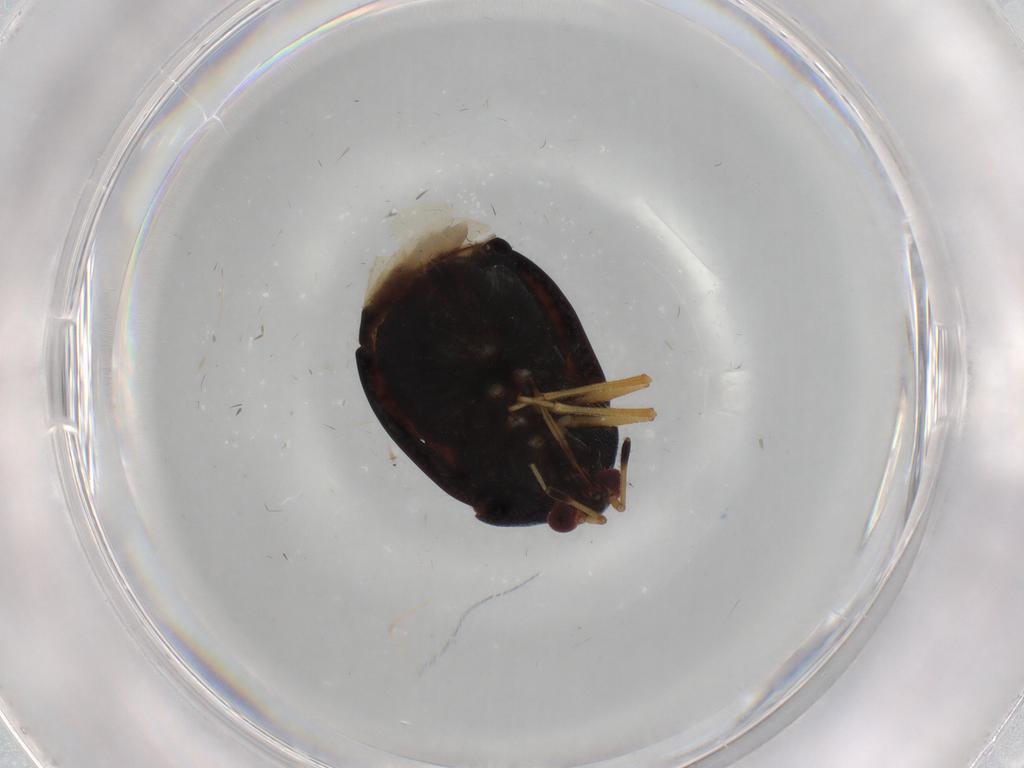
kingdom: Animalia
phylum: Arthropoda
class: Insecta
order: Hemiptera
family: Miridae
